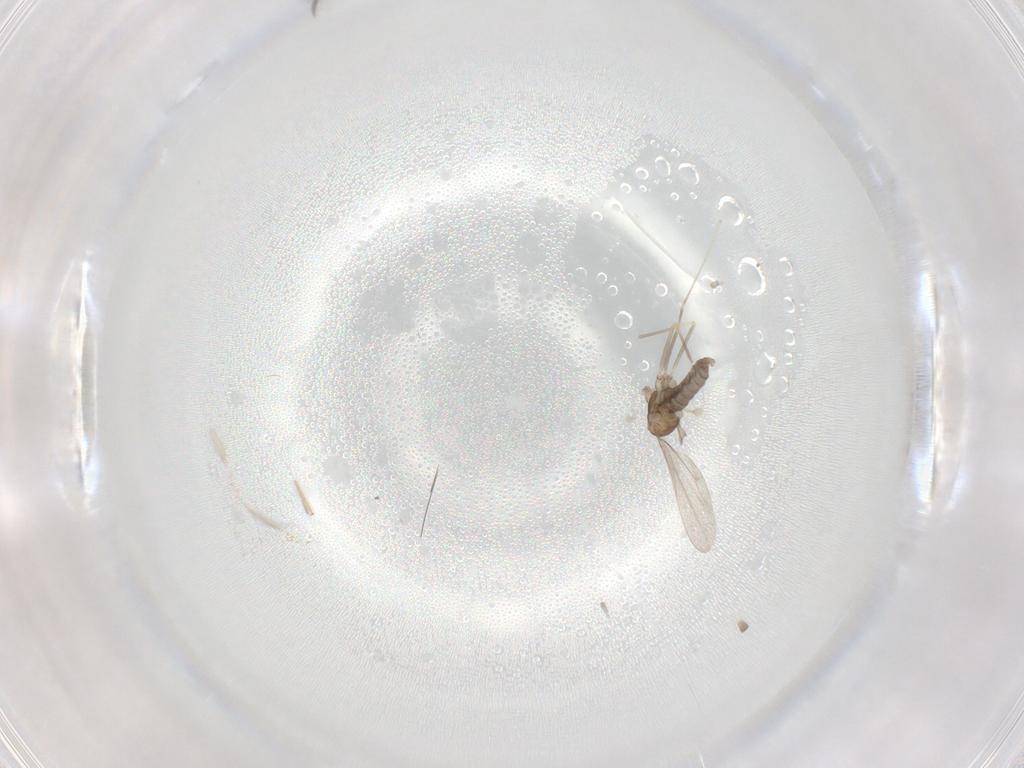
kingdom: Animalia
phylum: Arthropoda
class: Insecta
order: Diptera
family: Cecidomyiidae
